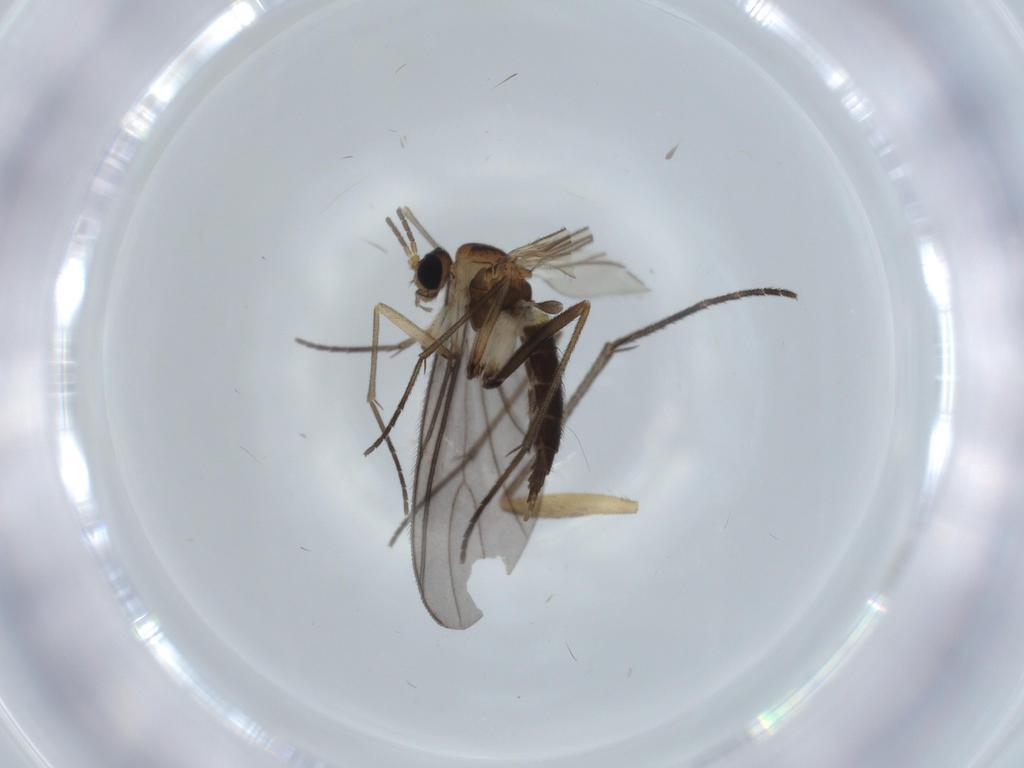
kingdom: Animalia
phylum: Arthropoda
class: Insecta
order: Diptera
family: Sciaridae
